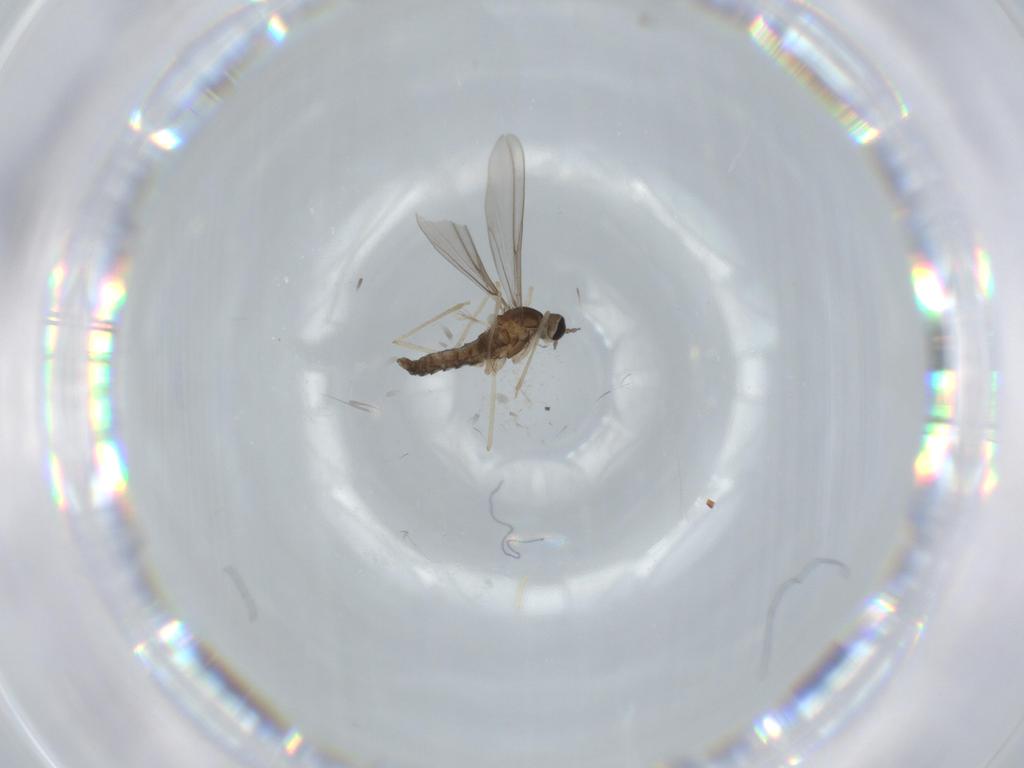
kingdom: Animalia
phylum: Arthropoda
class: Insecta
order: Diptera
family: Cecidomyiidae
